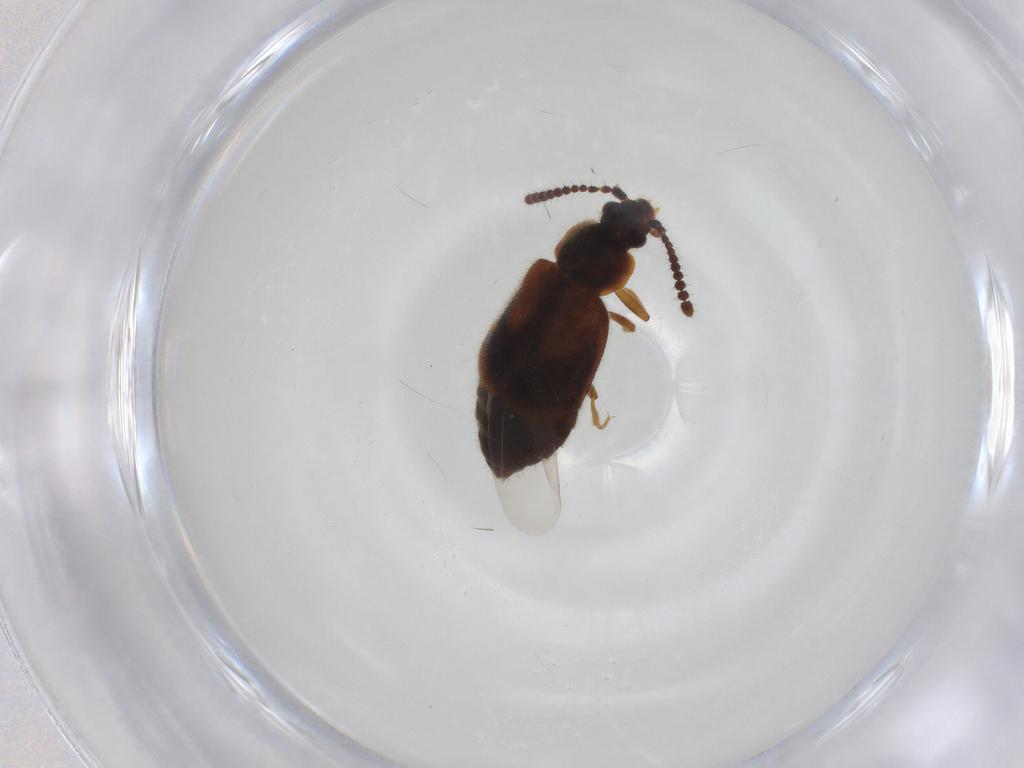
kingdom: Animalia
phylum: Arthropoda
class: Insecta
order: Coleoptera
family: Staphylinidae
